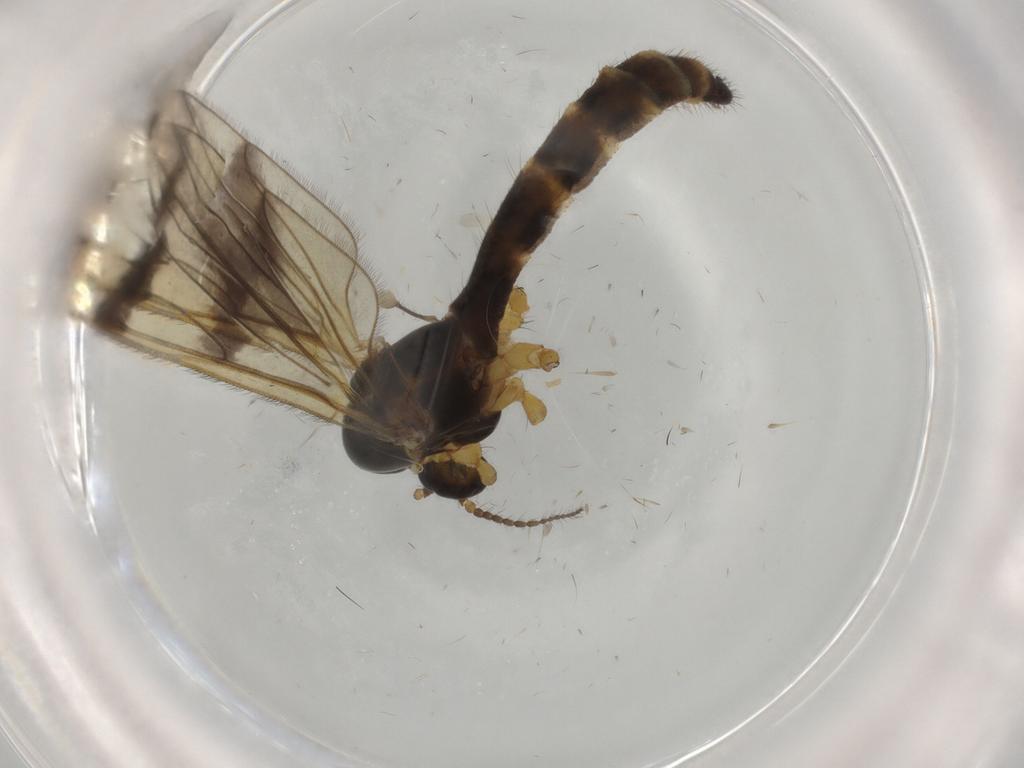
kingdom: Animalia
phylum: Arthropoda
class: Insecta
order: Diptera
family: Limoniidae
